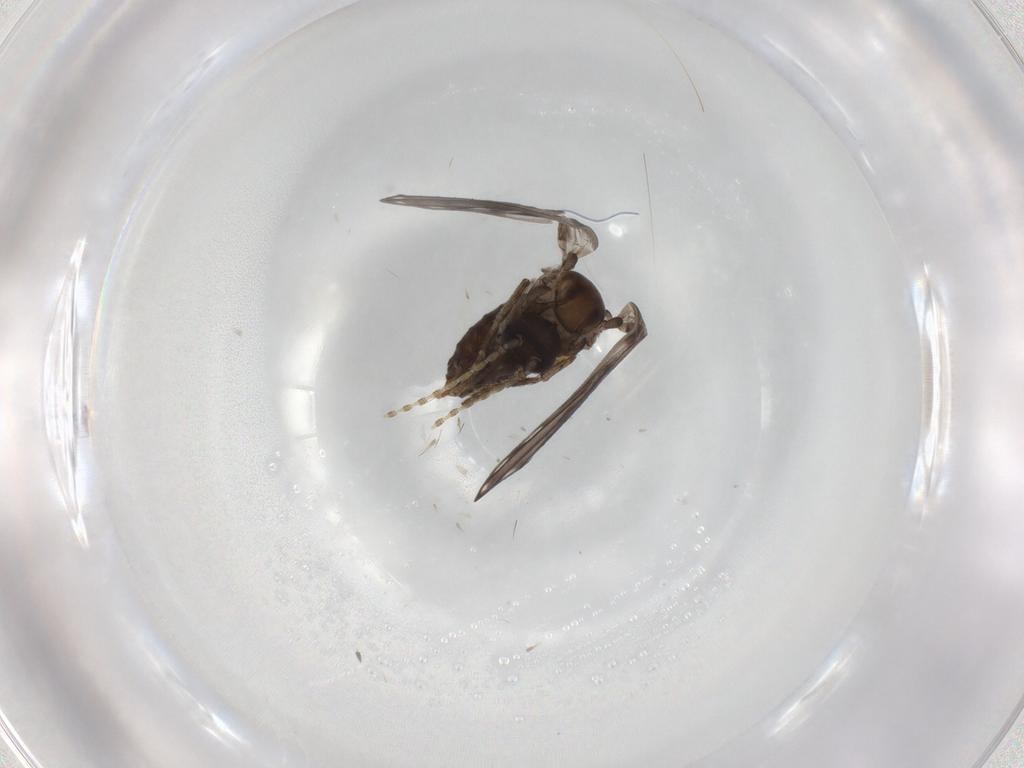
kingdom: Animalia
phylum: Arthropoda
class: Insecta
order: Diptera
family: Psychodidae
